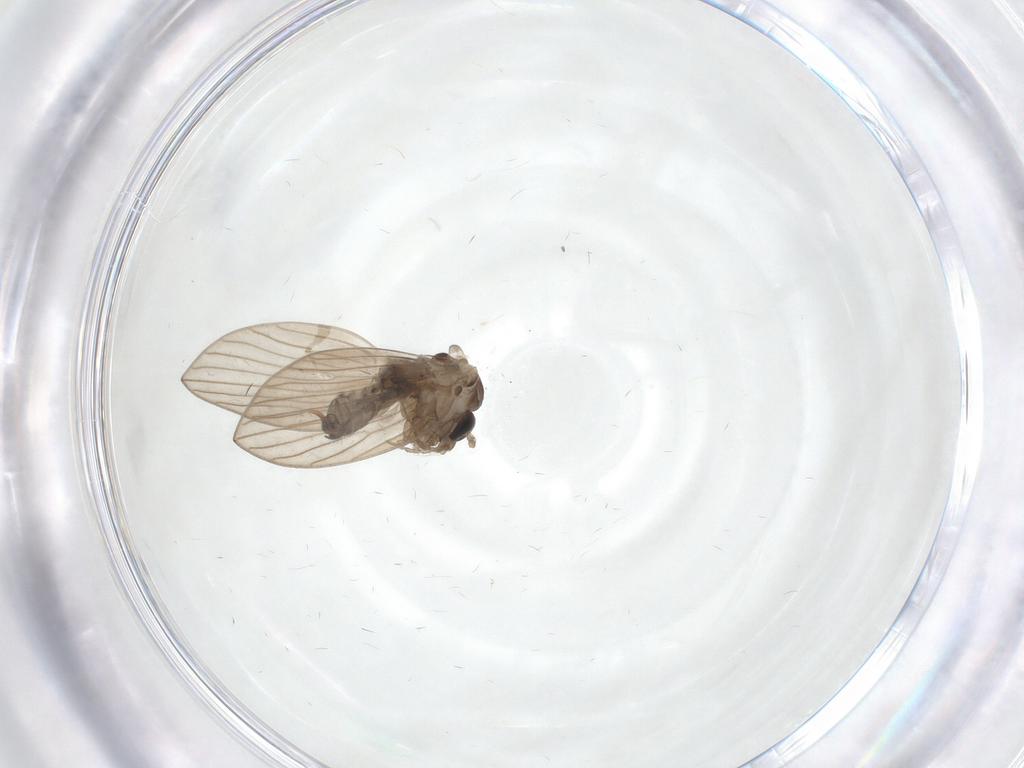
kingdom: Animalia
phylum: Arthropoda
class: Insecta
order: Diptera
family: Psychodidae
